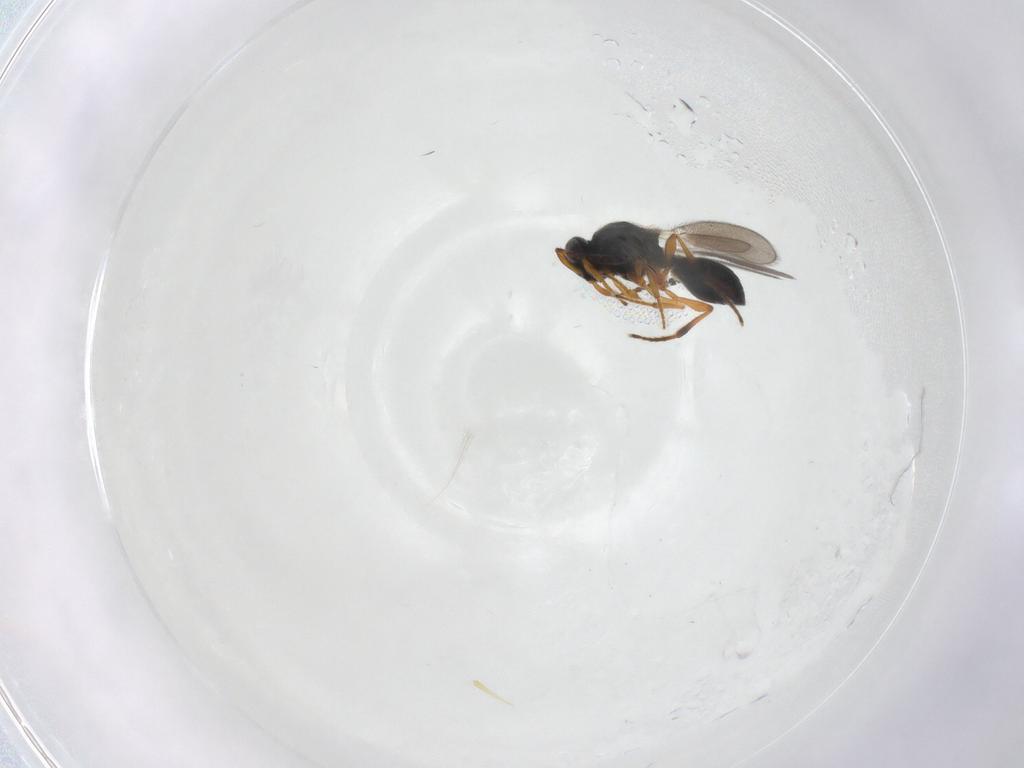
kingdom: Animalia
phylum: Arthropoda
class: Insecta
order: Hymenoptera
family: Platygastridae
